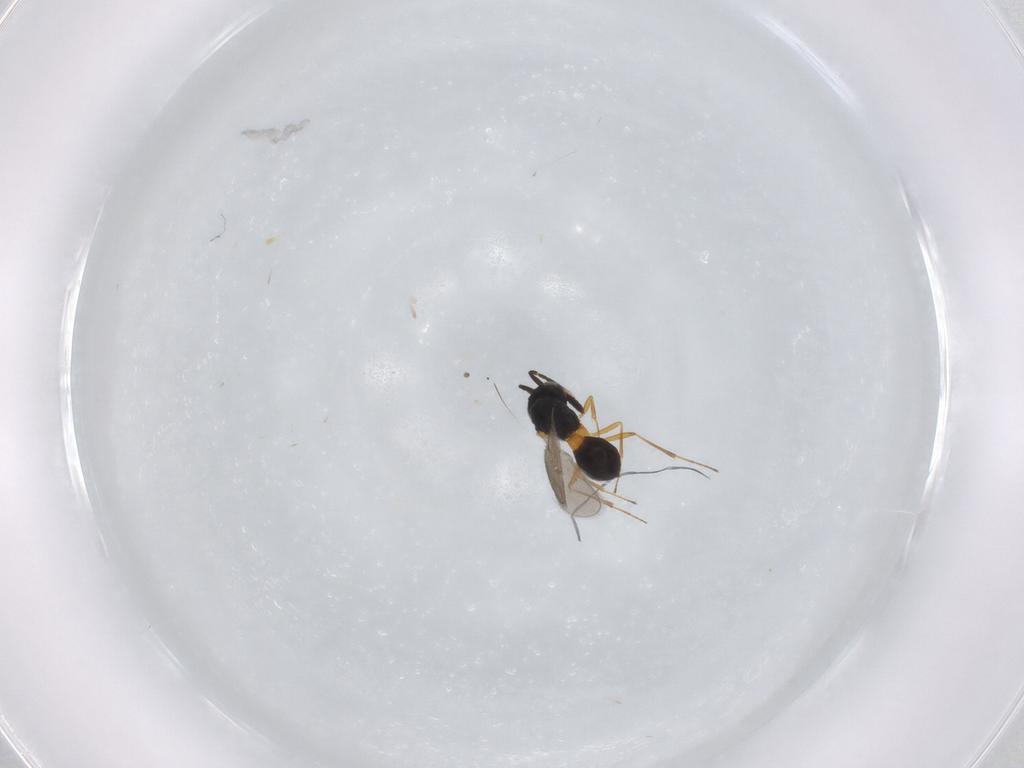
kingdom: Animalia
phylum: Arthropoda
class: Insecta
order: Hymenoptera
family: Scelionidae
